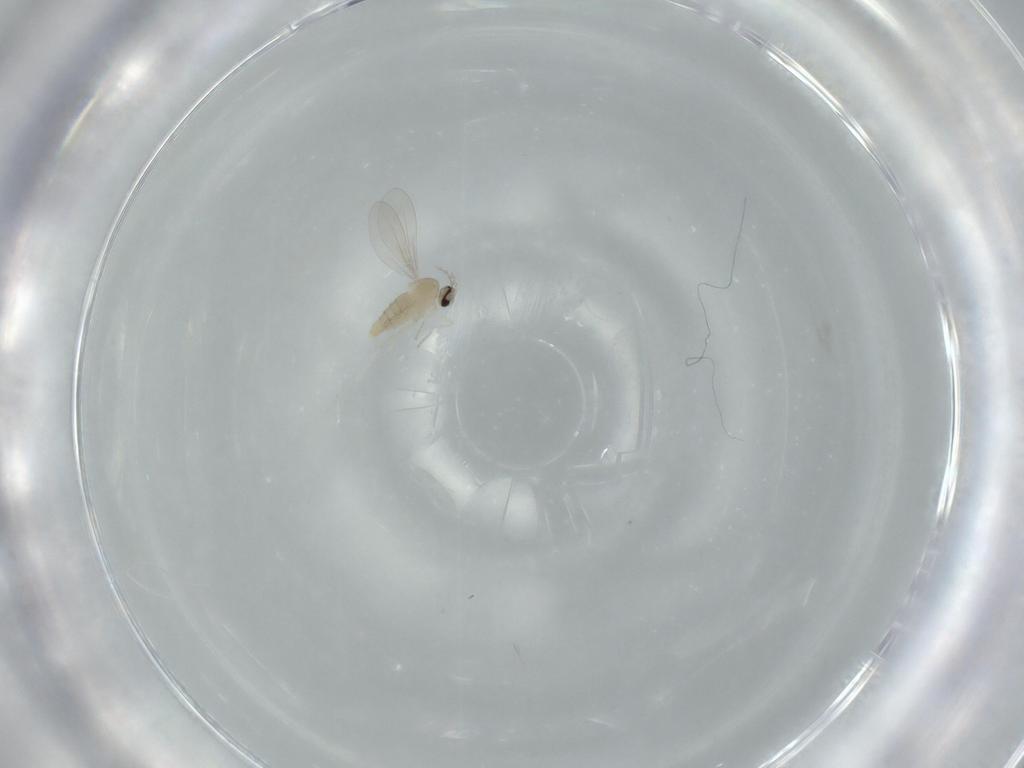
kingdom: Animalia
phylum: Arthropoda
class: Insecta
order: Diptera
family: Cecidomyiidae
